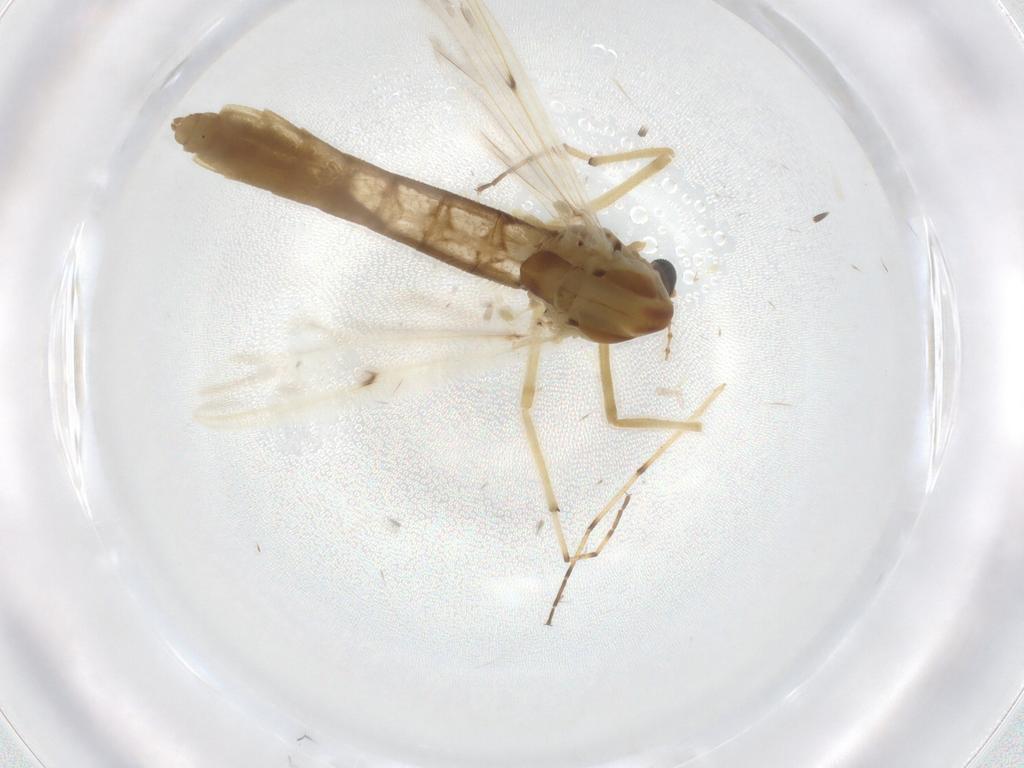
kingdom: Animalia
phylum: Arthropoda
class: Insecta
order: Diptera
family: Chironomidae
